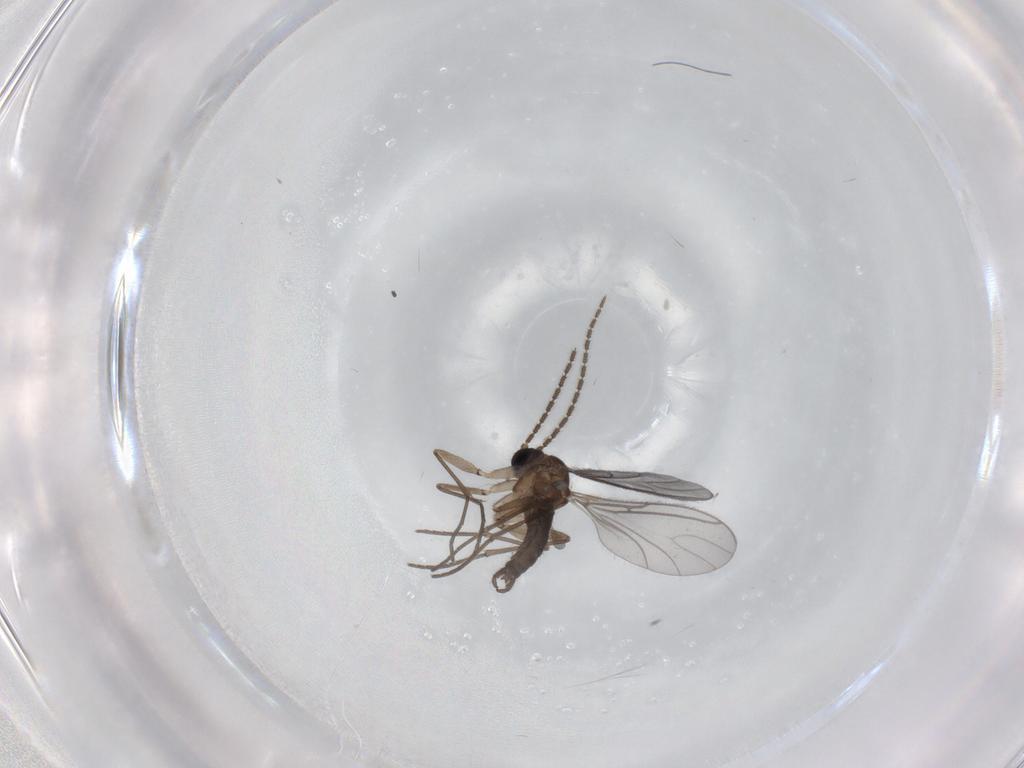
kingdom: Animalia
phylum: Arthropoda
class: Insecta
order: Diptera
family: Sciaridae
